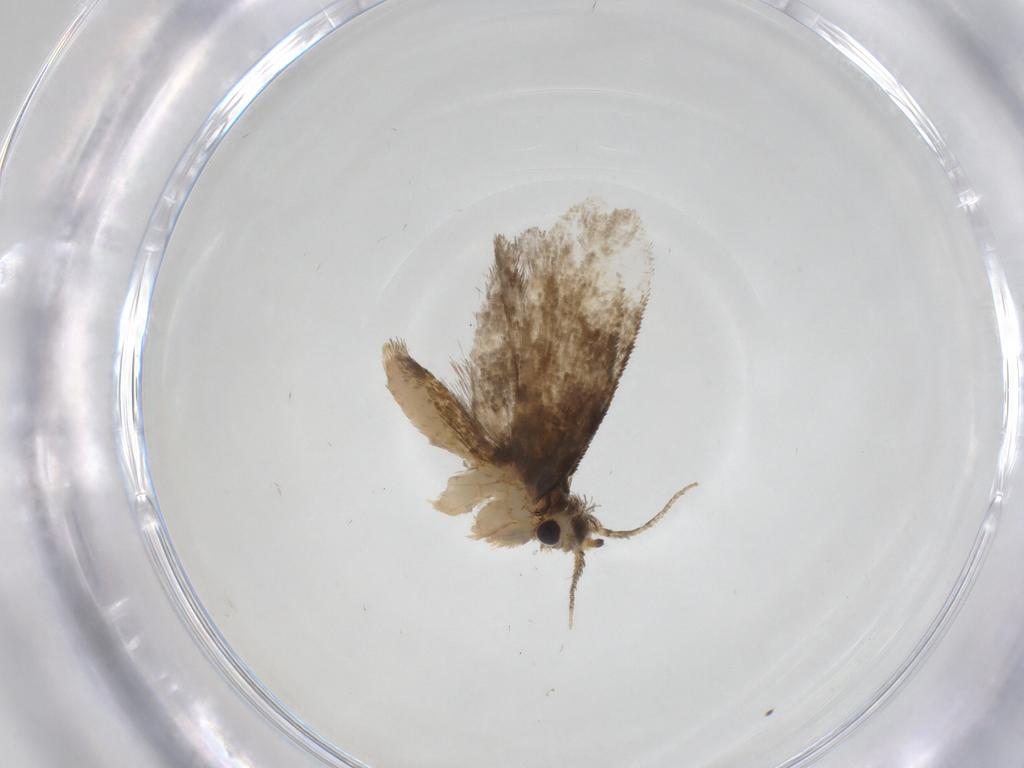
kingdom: Animalia
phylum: Arthropoda
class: Insecta
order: Lepidoptera
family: Psychidae
